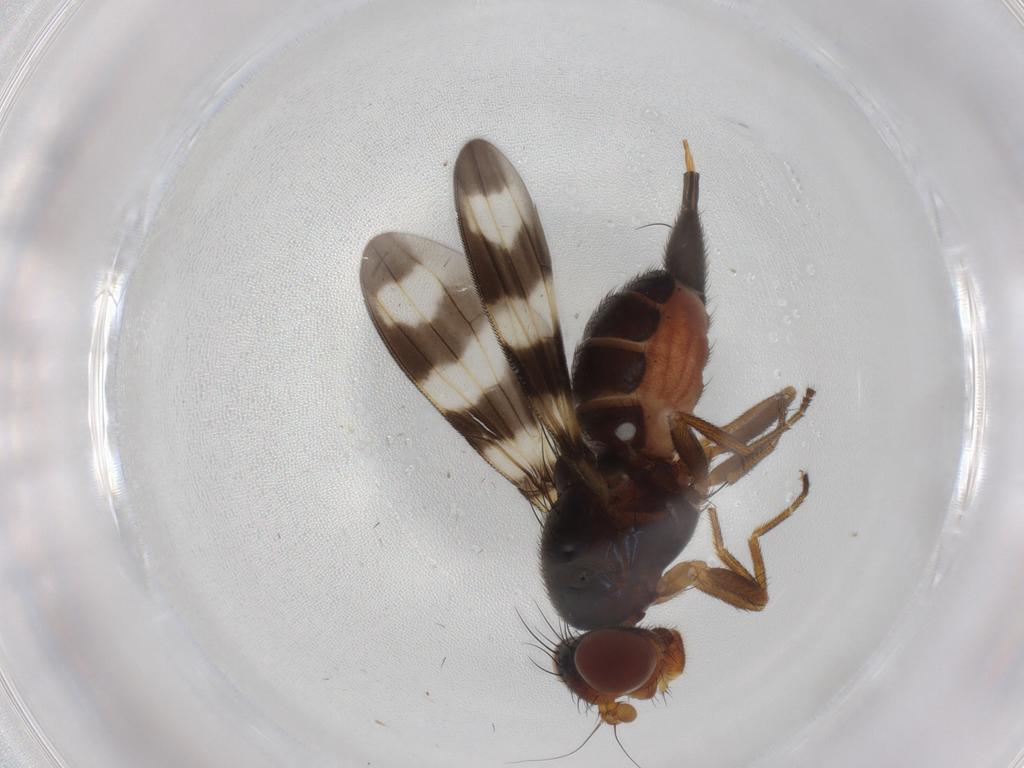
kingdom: Animalia
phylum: Arthropoda
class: Insecta
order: Diptera
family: Ulidiidae
